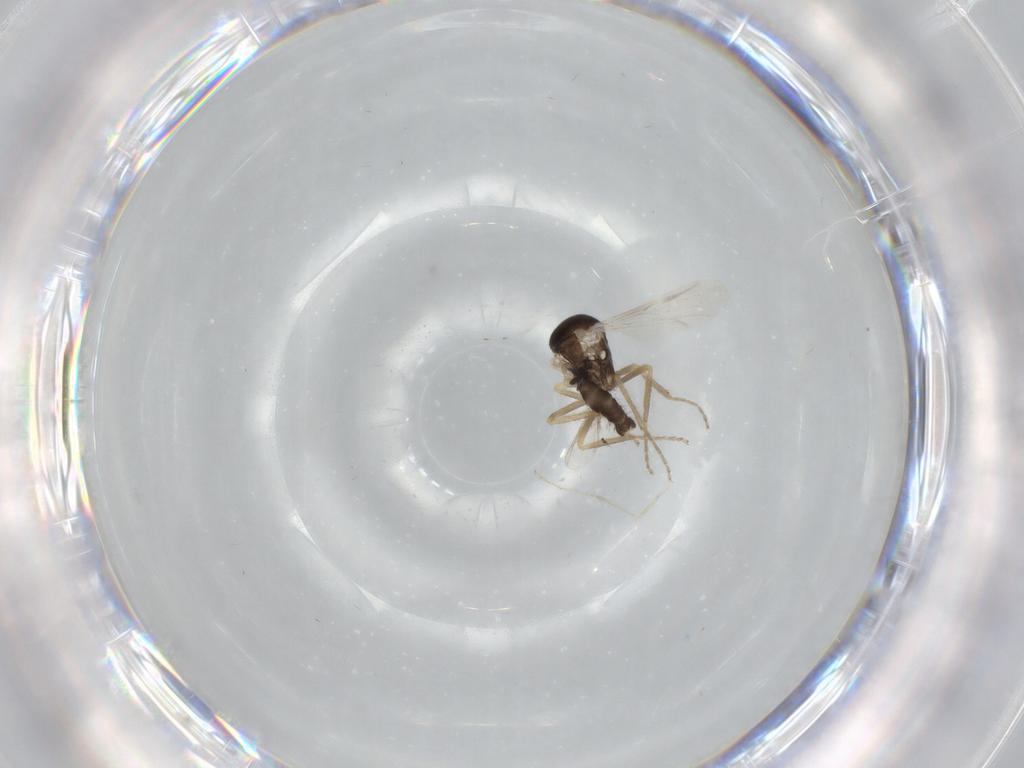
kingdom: Animalia
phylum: Arthropoda
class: Insecta
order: Diptera
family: Ceratopogonidae
